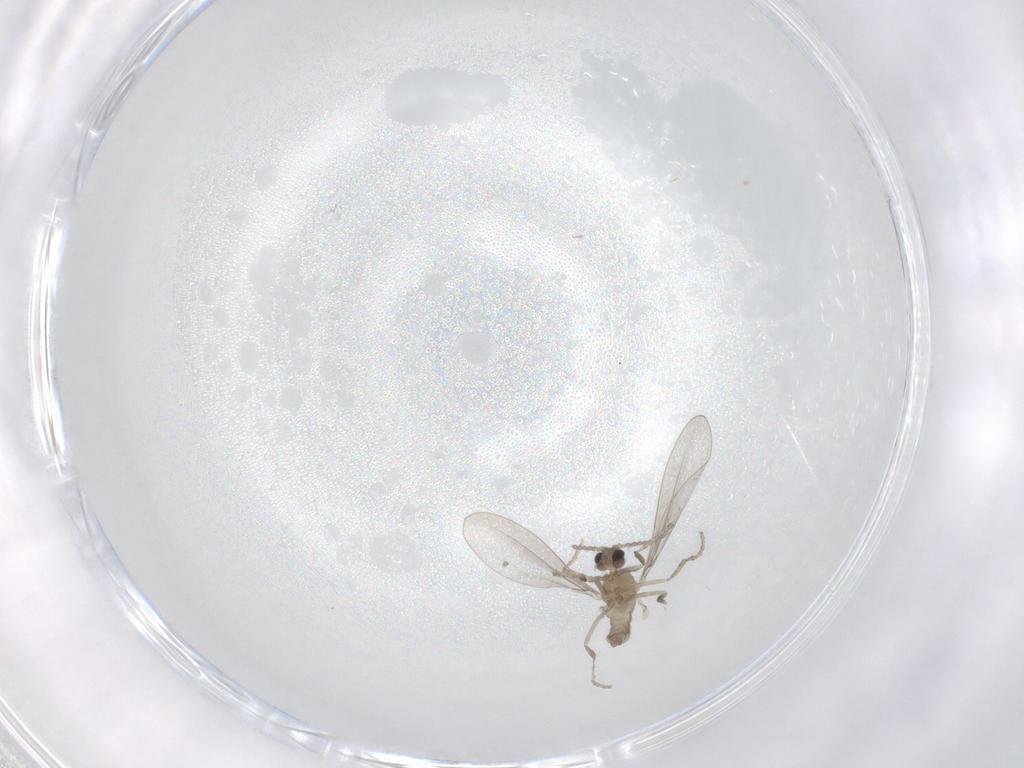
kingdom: Animalia
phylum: Arthropoda
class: Insecta
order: Diptera
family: Cecidomyiidae
